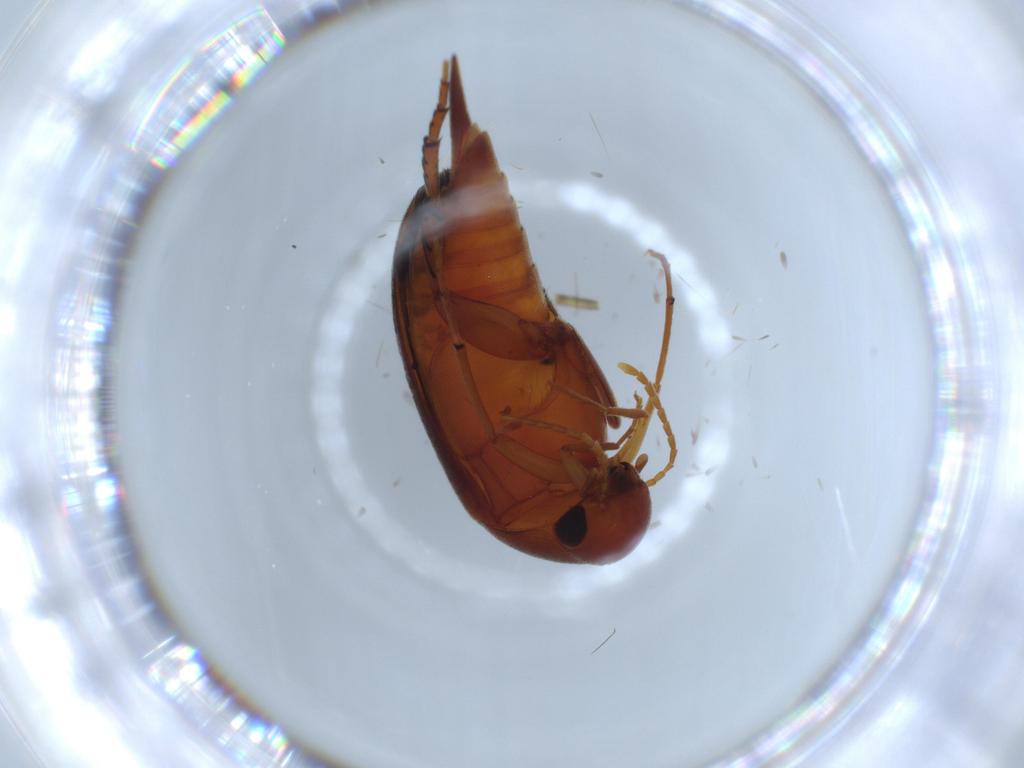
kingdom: Animalia
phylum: Arthropoda
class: Insecta
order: Coleoptera
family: Mordellidae
